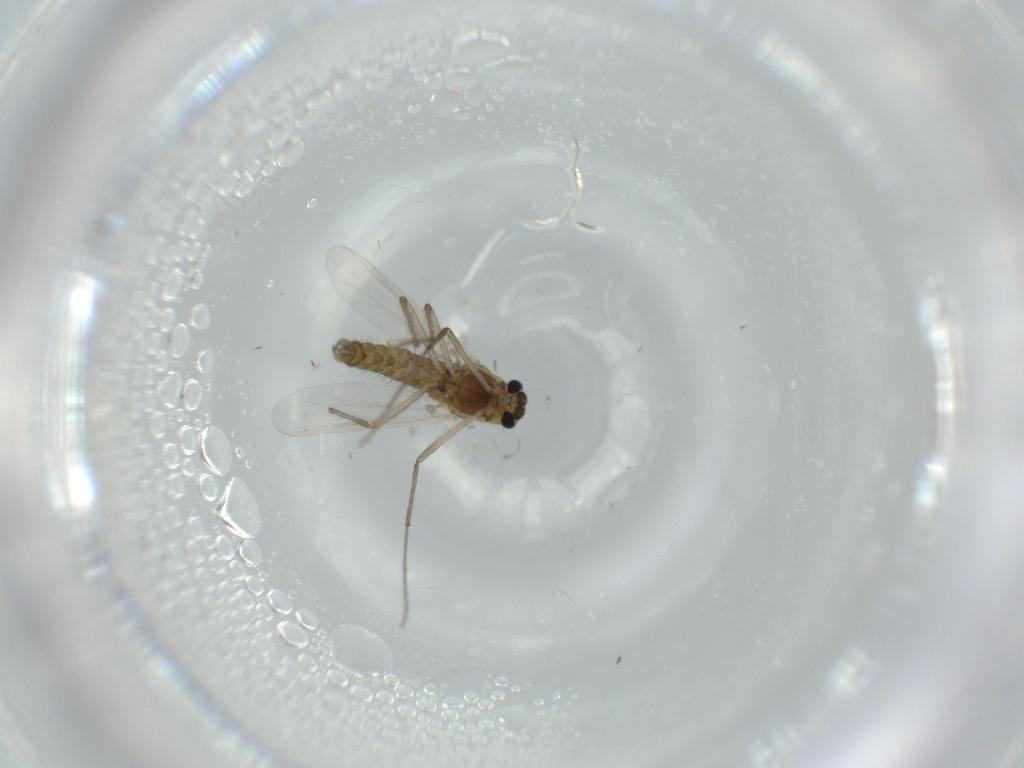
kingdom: Animalia
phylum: Arthropoda
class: Insecta
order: Diptera
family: Chironomidae
